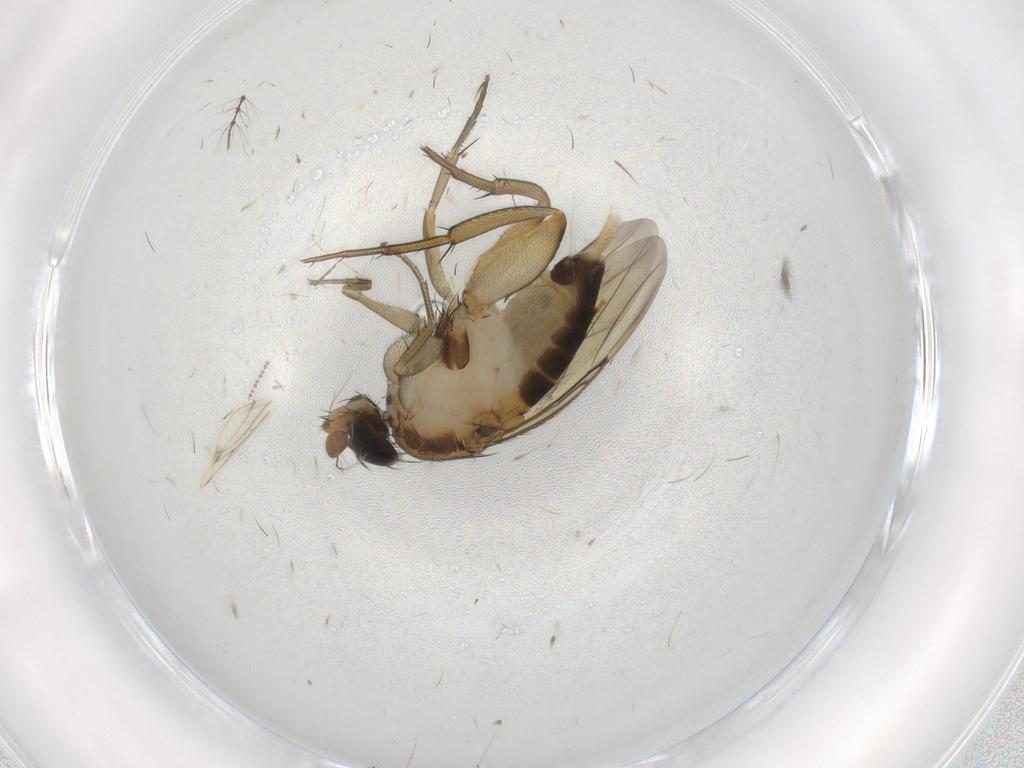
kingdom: Animalia
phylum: Arthropoda
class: Insecta
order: Diptera
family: Phoridae
